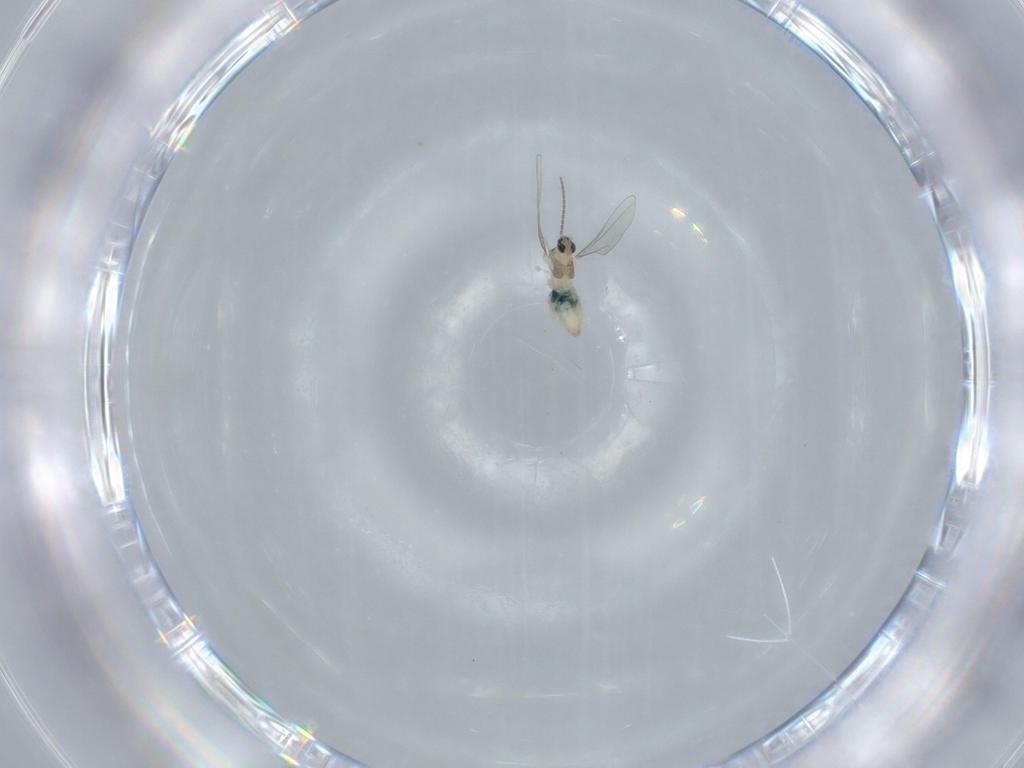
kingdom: Animalia
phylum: Arthropoda
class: Insecta
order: Diptera
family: Cecidomyiidae
